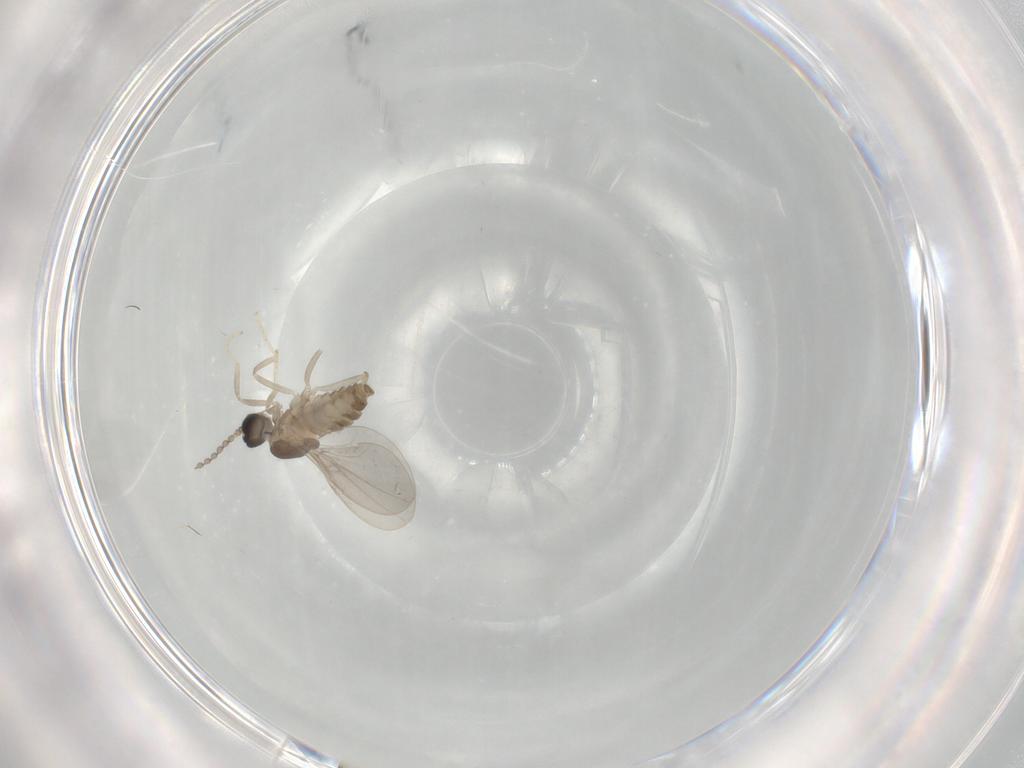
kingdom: Animalia
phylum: Arthropoda
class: Insecta
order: Diptera
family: Cecidomyiidae
